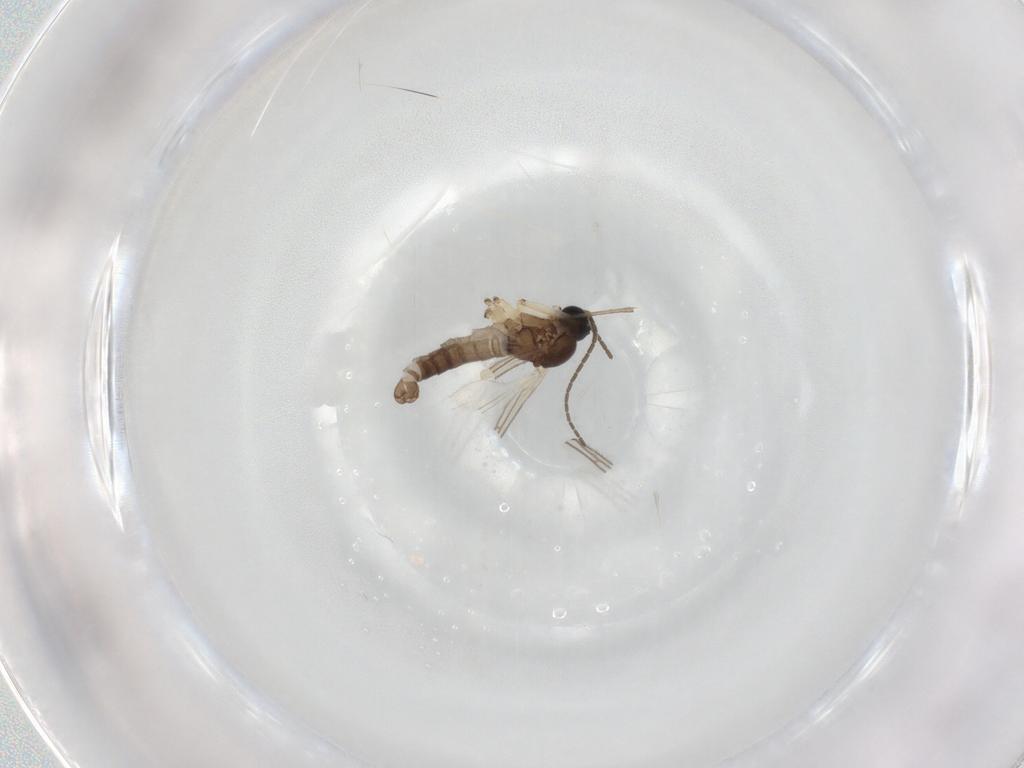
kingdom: Animalia
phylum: Arthropoda
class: Insecta
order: Diptera
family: Sciaridae
